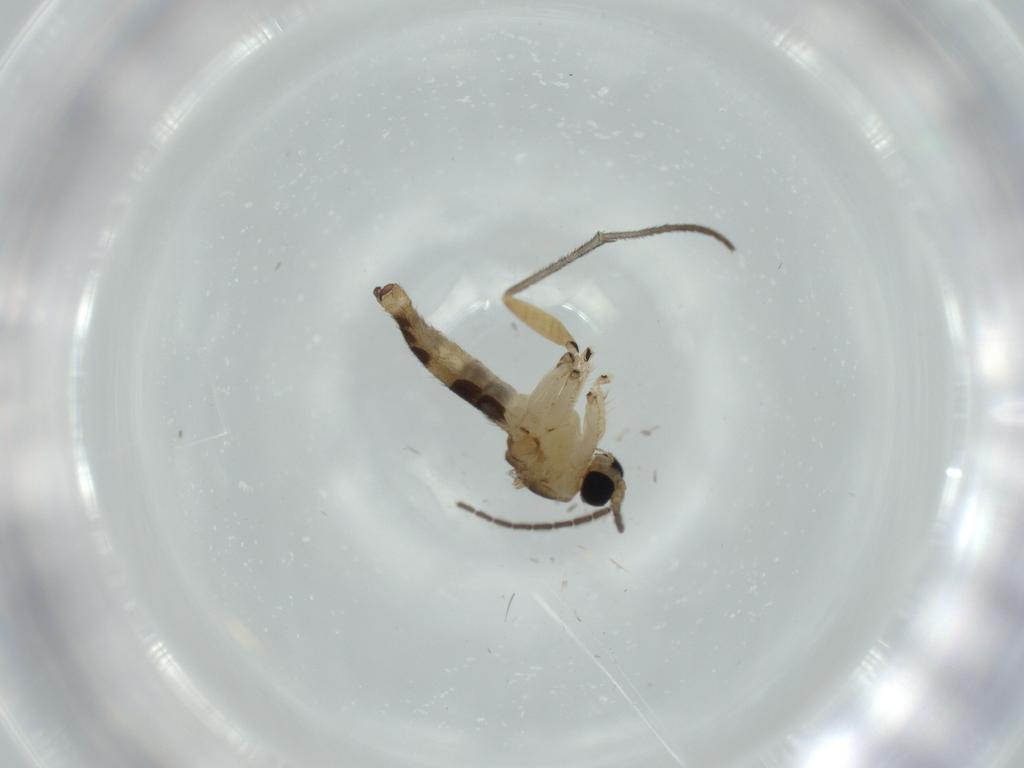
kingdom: Animalia
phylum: Arthropoda
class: Insecta
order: Diptera
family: Sciaridae
